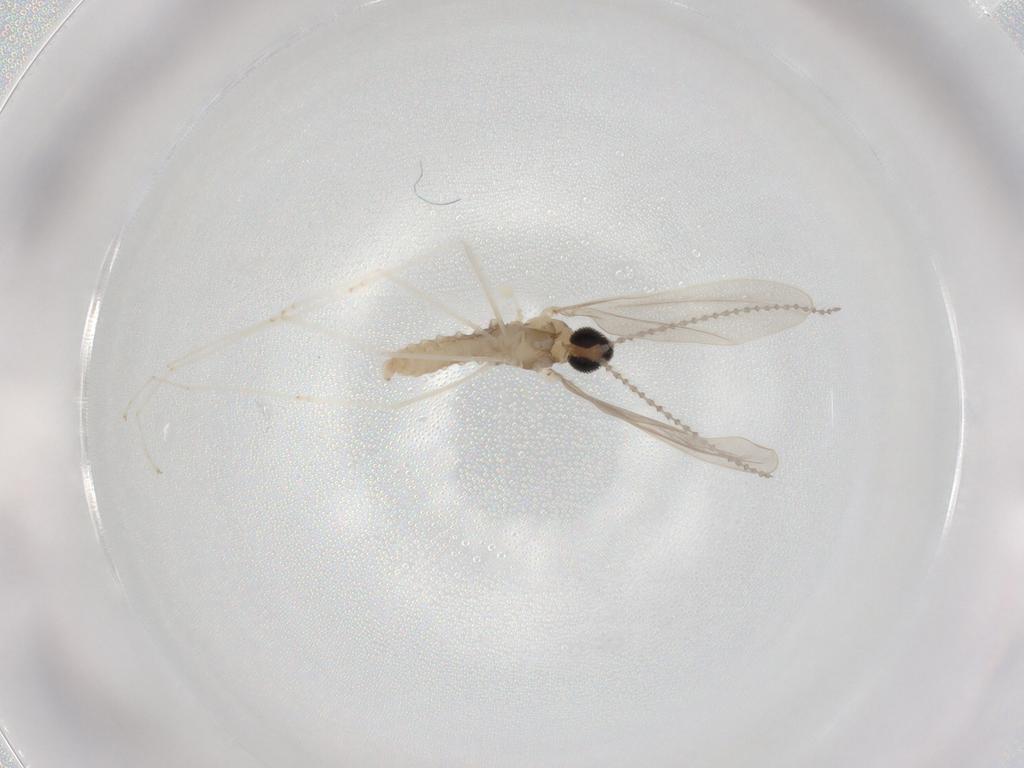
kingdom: Animalia
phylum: Arthropoda
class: Insecta
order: Diptera
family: Cecidomyiidae
